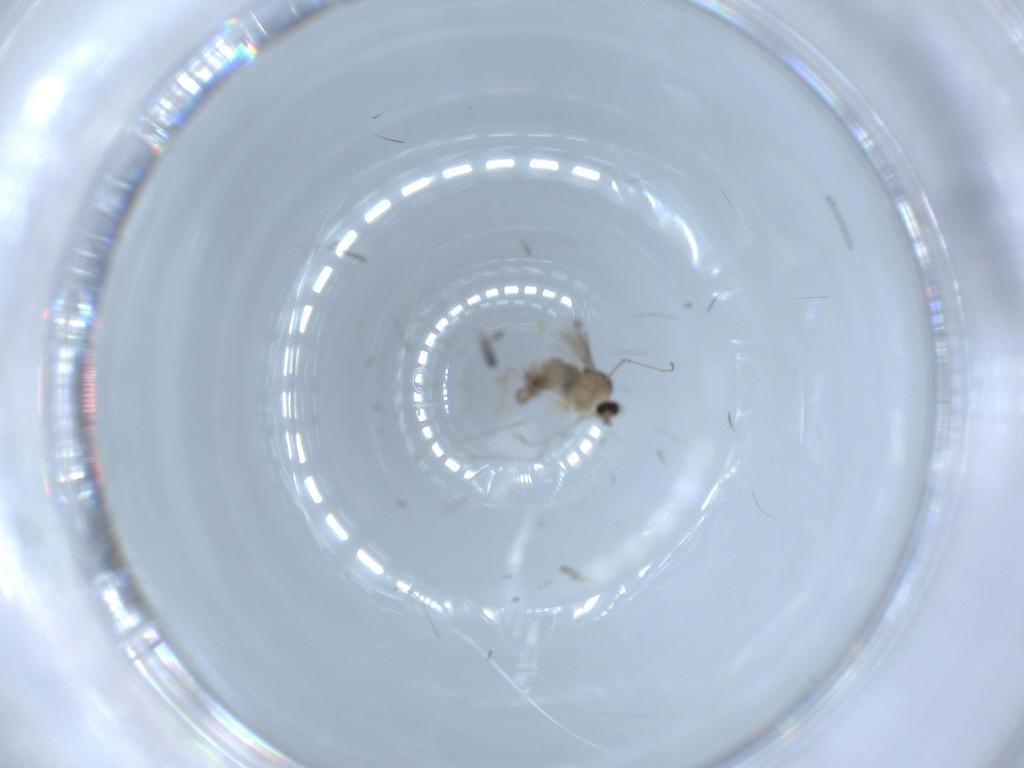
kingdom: Animalia
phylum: Arthropoda
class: Insecta
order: Diptera
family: Cecidomyiidae
